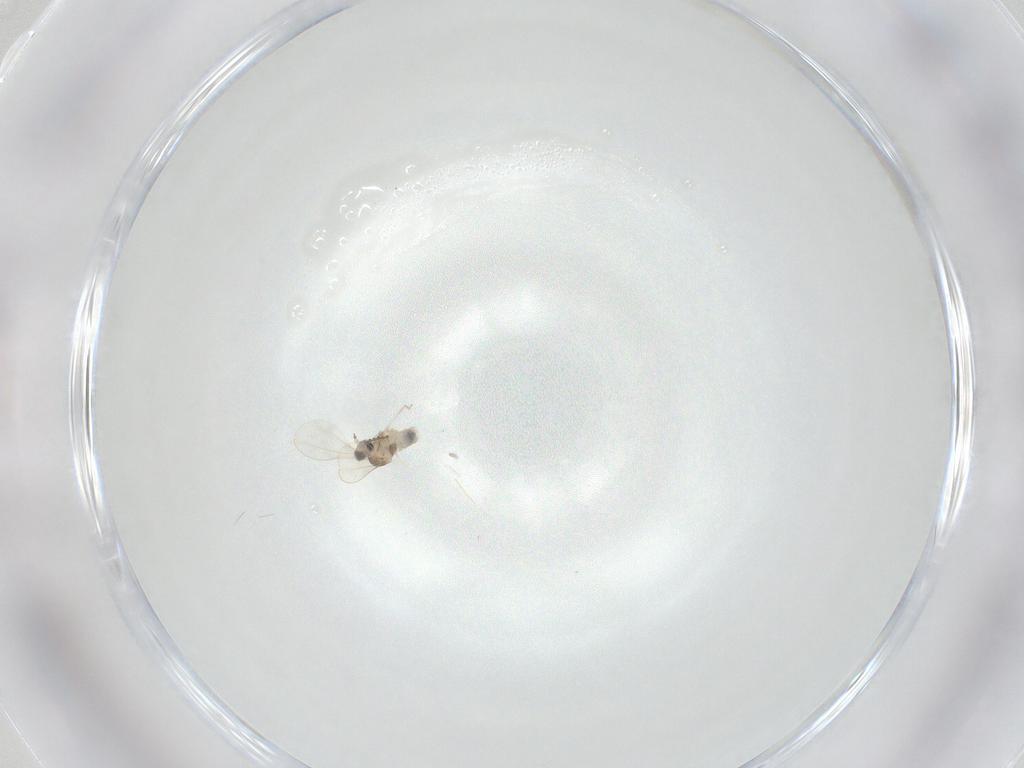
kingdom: Animalia
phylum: Arthropoda
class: Insecta
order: Diptera
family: Cecidomyiidae
